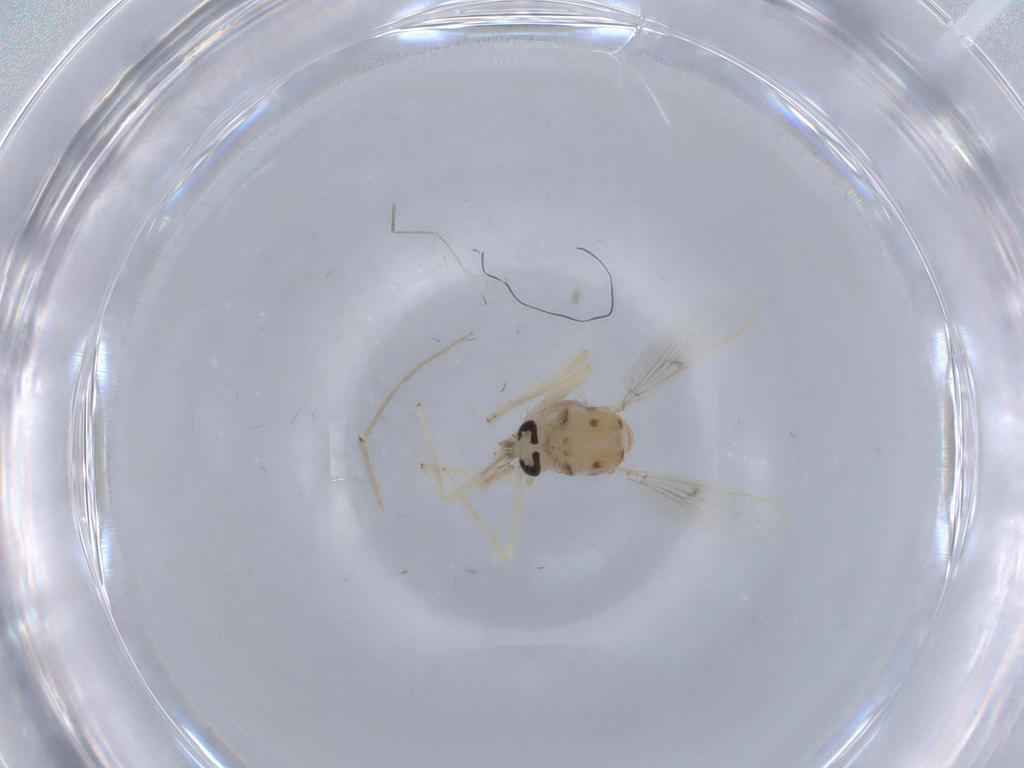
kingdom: Animalia
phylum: Arthropoda
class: Insecta
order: Diptera
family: Chironomidae
